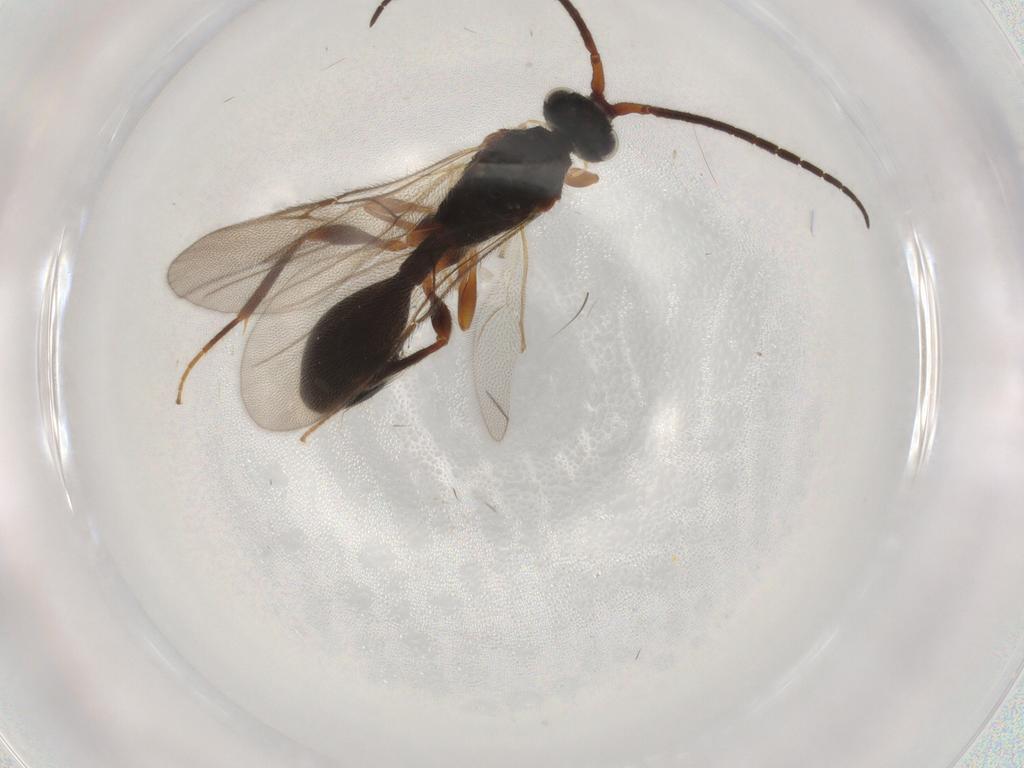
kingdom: Animalia
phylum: Arthropoda
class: Insecta
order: Hymenoptera
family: Diapriidae
